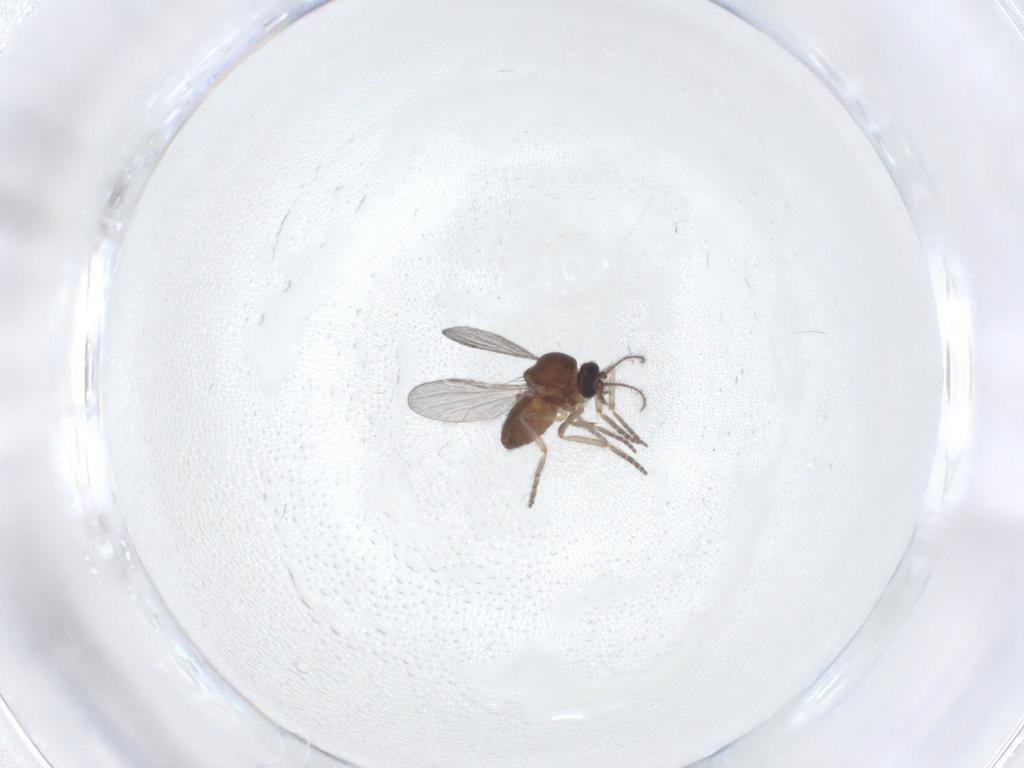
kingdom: Animalia
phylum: Arthropoda
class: Insecta
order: Diptera
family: Ceratopogonidae
